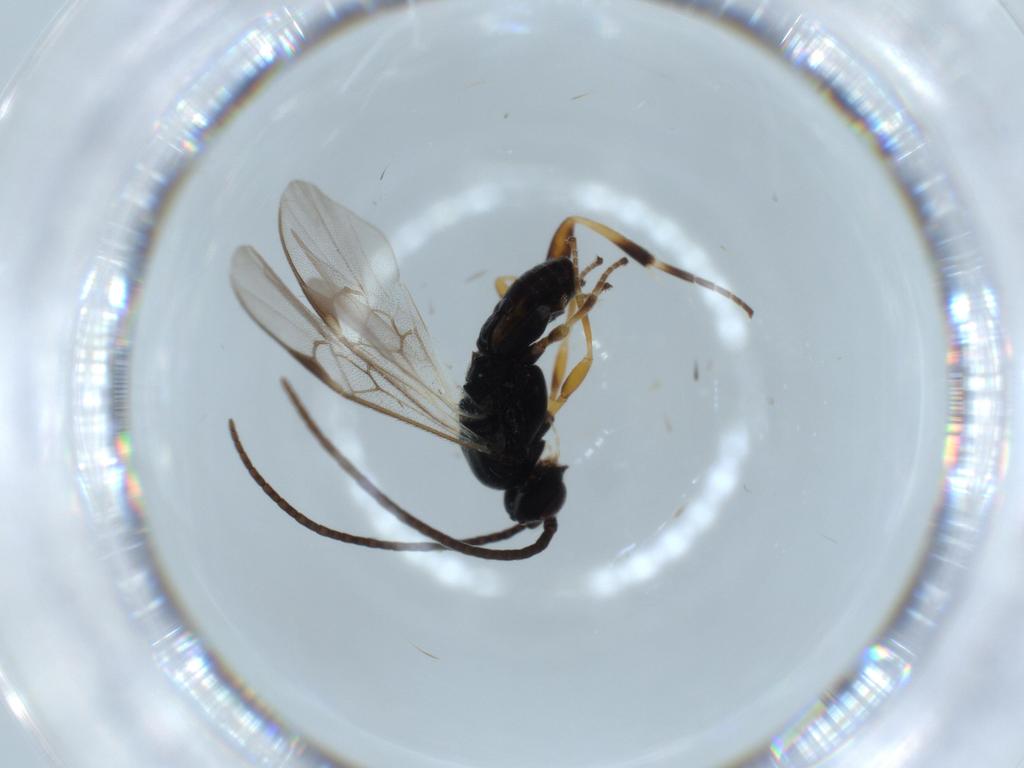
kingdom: Animalia
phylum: Arthropoda
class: Insecta
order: Hymenoptera
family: Braconidae
